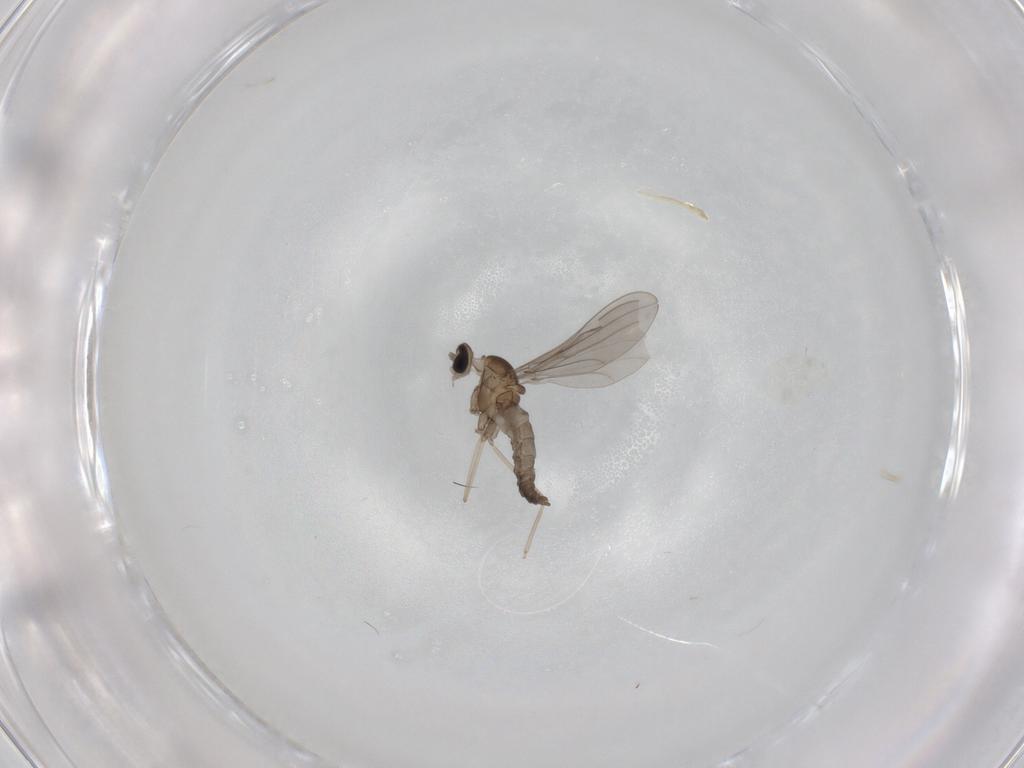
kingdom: Animalia
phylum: Arthropoda
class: Insecta
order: Diptera
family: Cecidomyiidae
